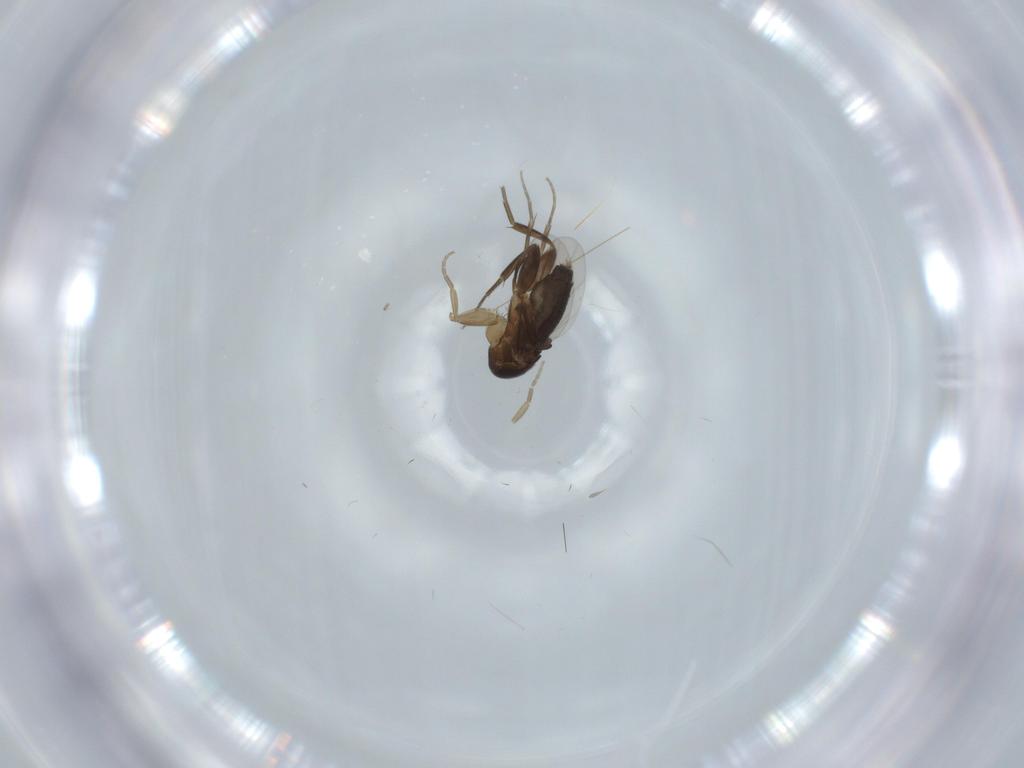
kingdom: Animalia
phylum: Arthropoda
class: Insecta
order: Diptera
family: Phoridae
